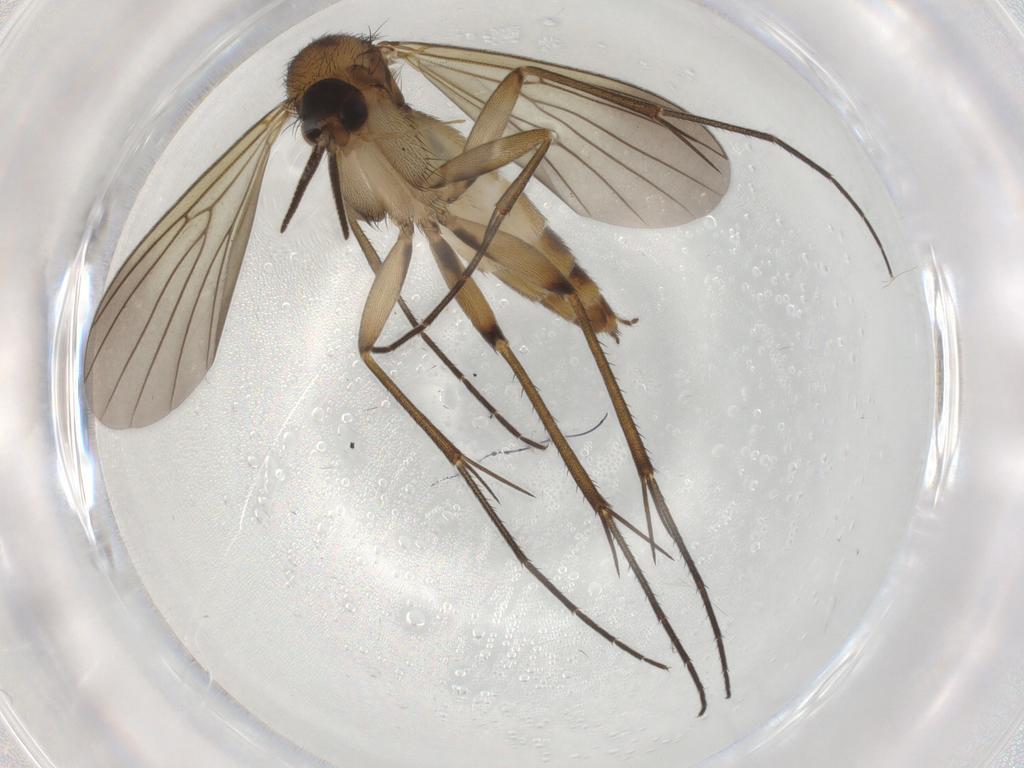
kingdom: Animalia
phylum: Arthropoda
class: Insecta
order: Diptera
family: Mycetophilidae
